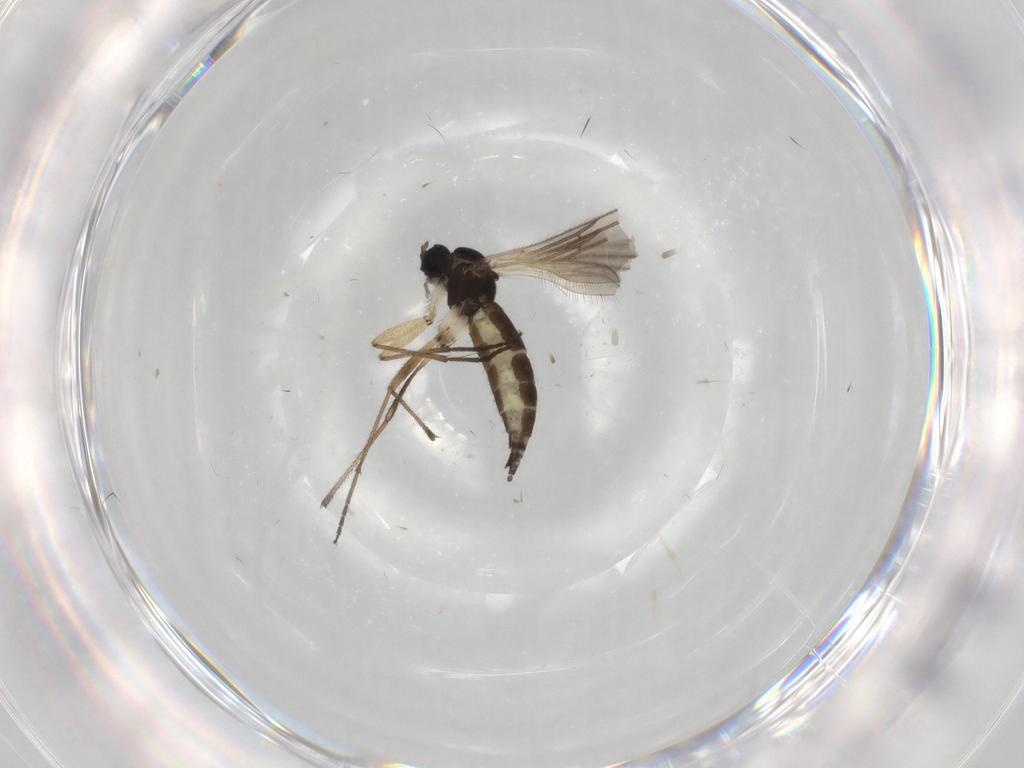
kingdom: Animalia
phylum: Arthropoda
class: Insecta
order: Diptera
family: Sciaridae
